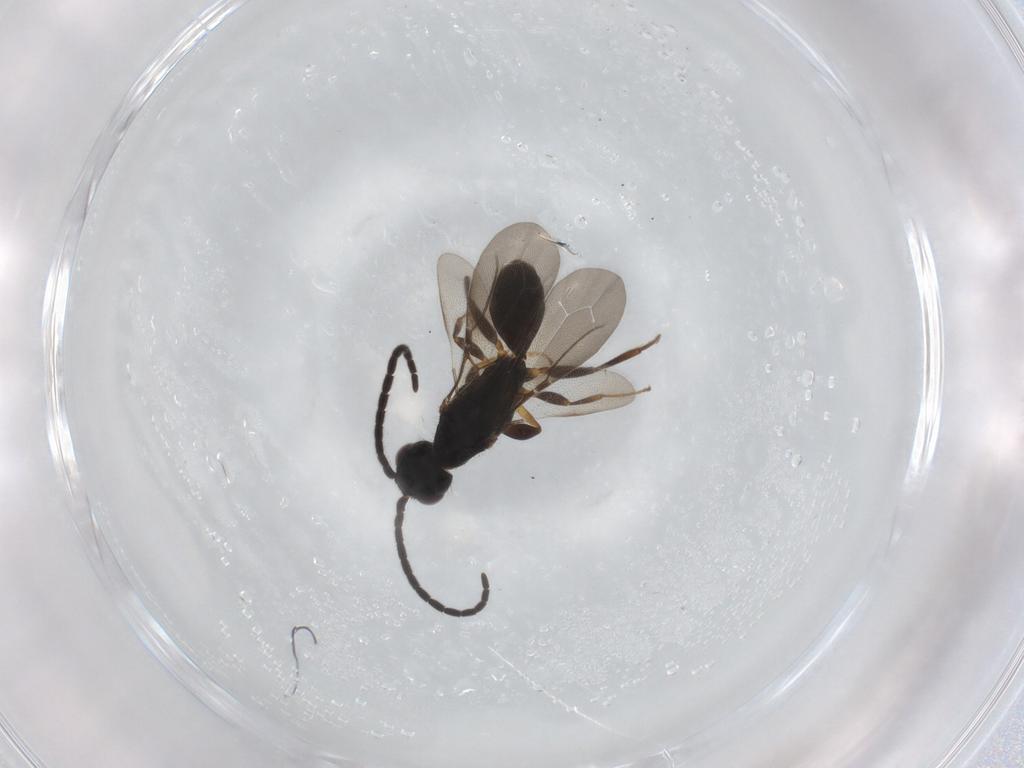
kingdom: Animalia
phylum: Arthropoda
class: Insecta
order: Hymenoptera
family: Bethylidae
